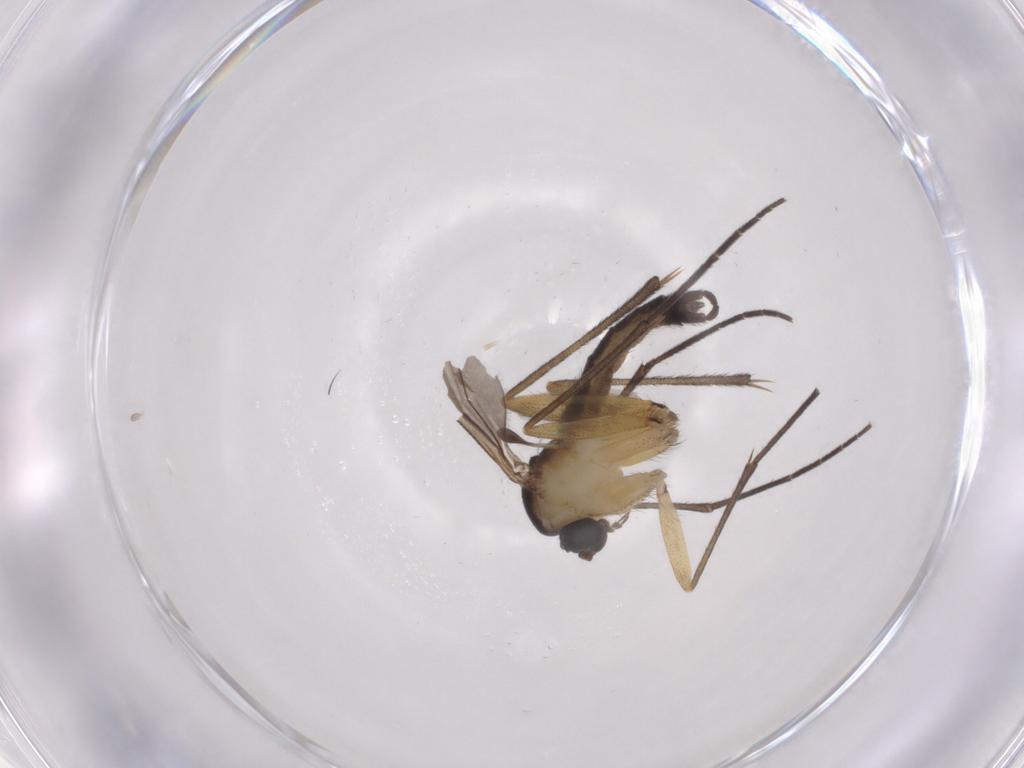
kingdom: Animalia
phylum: Arthropoda
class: Insecta
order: Diptera
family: Sciaridae
